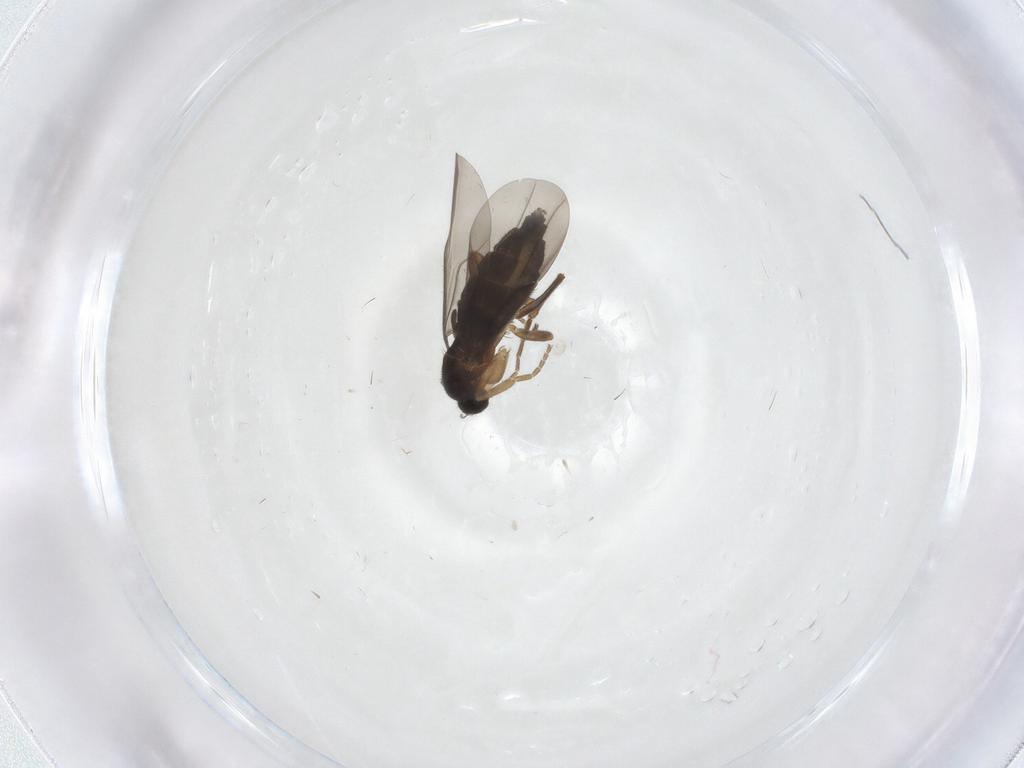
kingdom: Animalia
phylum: Arthropoda
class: Insecta
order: Diptera
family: Phoridae
